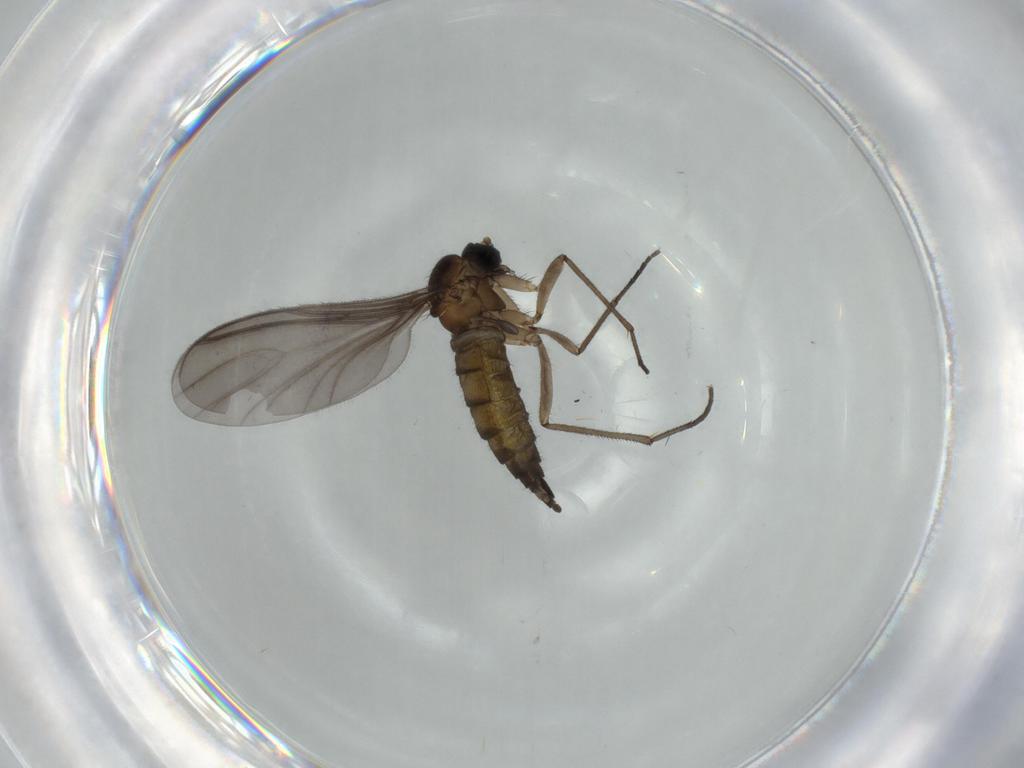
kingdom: Animalia
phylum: Arthropoda
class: Insecta
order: Diptera
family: Sciaridae
